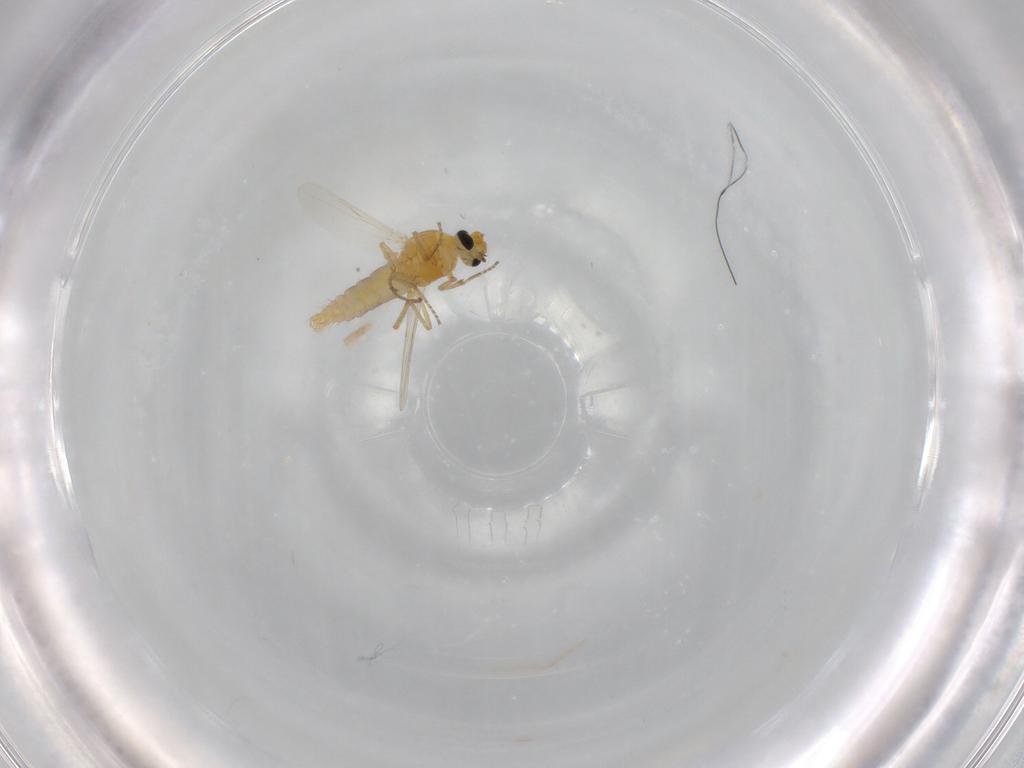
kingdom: Animalia
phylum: Arthropoda
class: Insecta
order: Diptera
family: Ceratopogonidae
